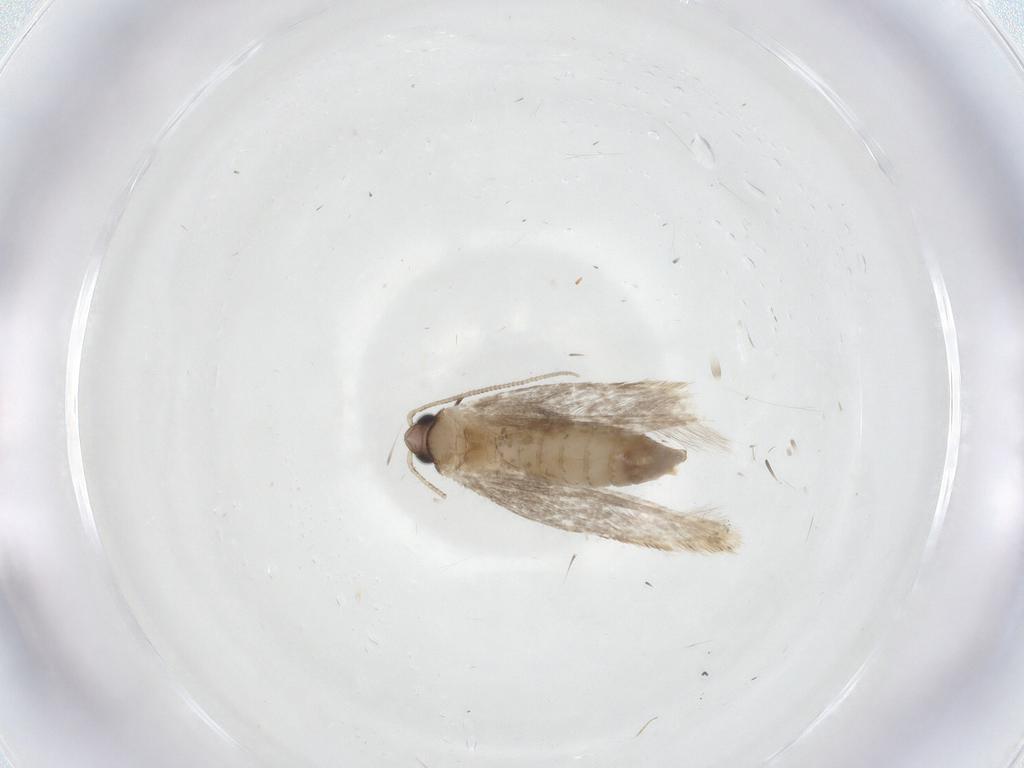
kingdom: Animalia
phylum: Arthropoda
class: Insecta
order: Lepidoptera
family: Tineidae
